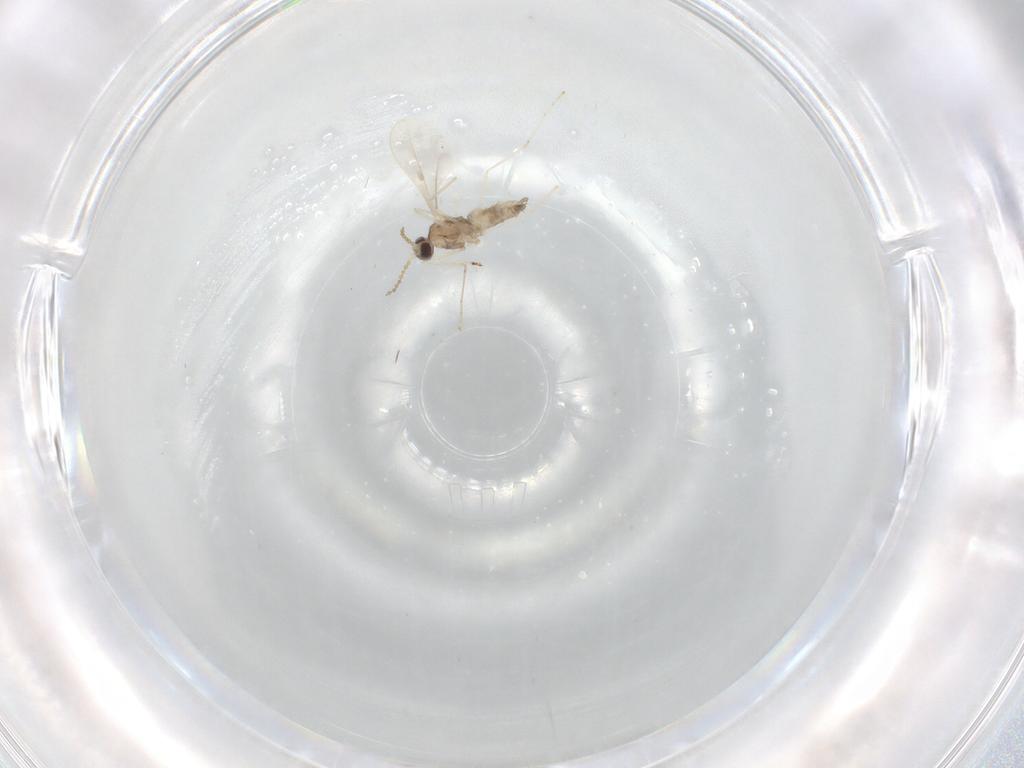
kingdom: Animalia
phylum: Arthropoda
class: Insecta
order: Diptera
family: Cecidomyiidae
